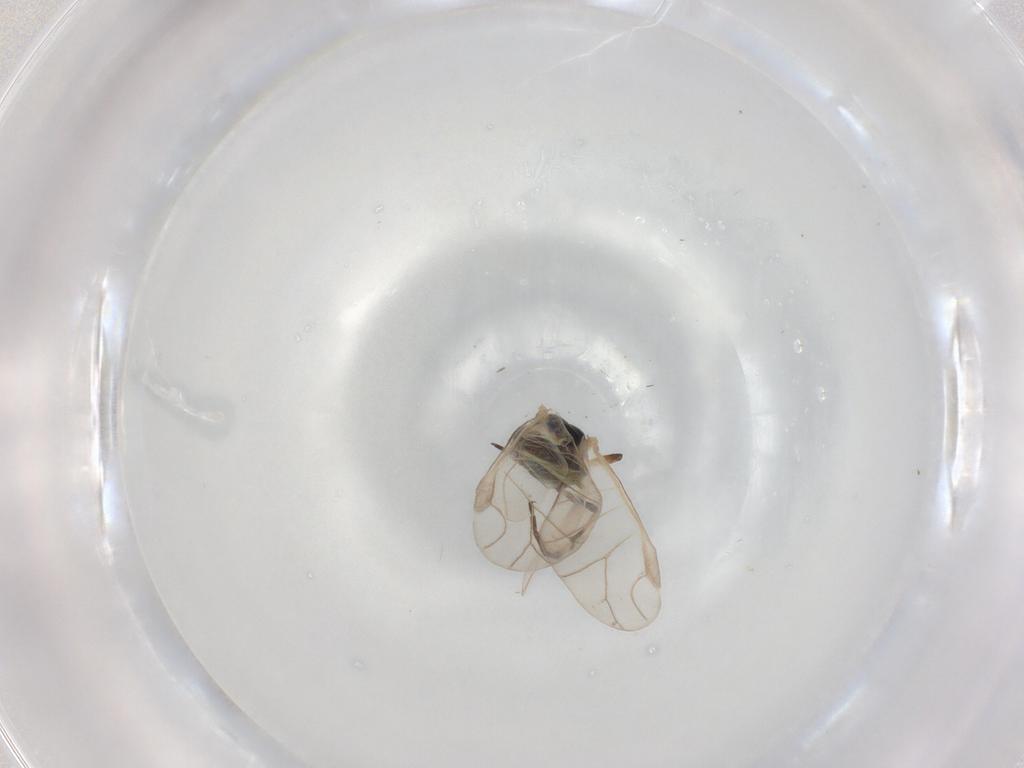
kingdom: Animalia
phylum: Arthropoda
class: Insecta
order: Hemiptera
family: Aphididae
